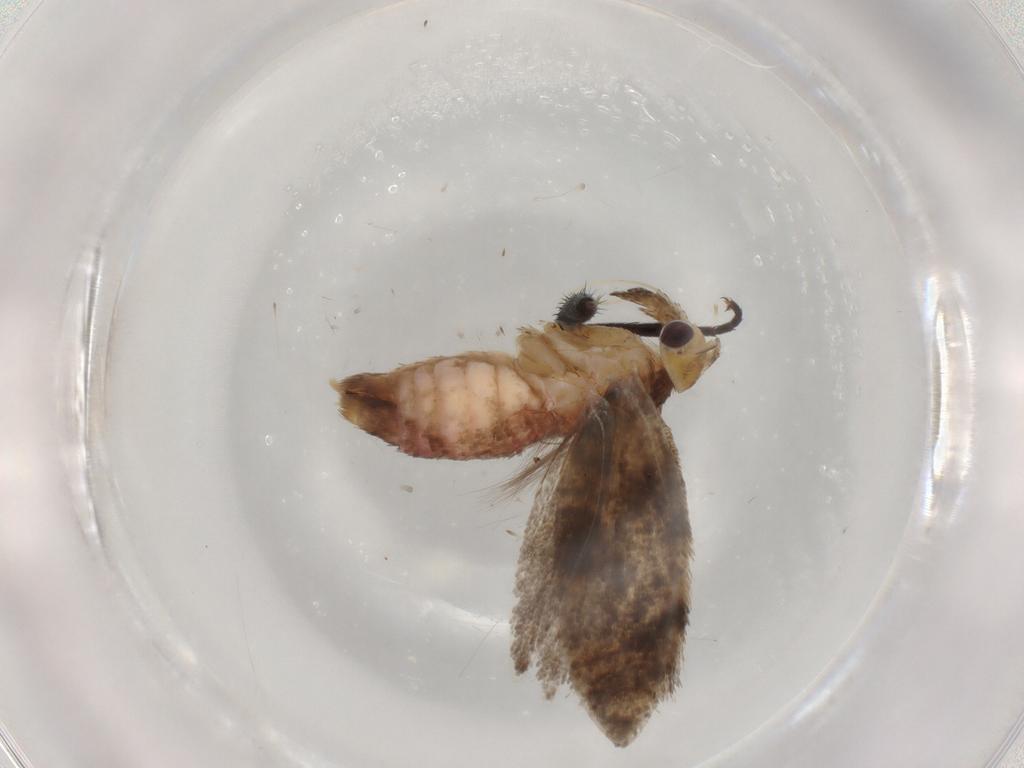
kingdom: Animalia
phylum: Arthropoda
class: Insecta
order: Lepidoptera
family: Plutellidae
